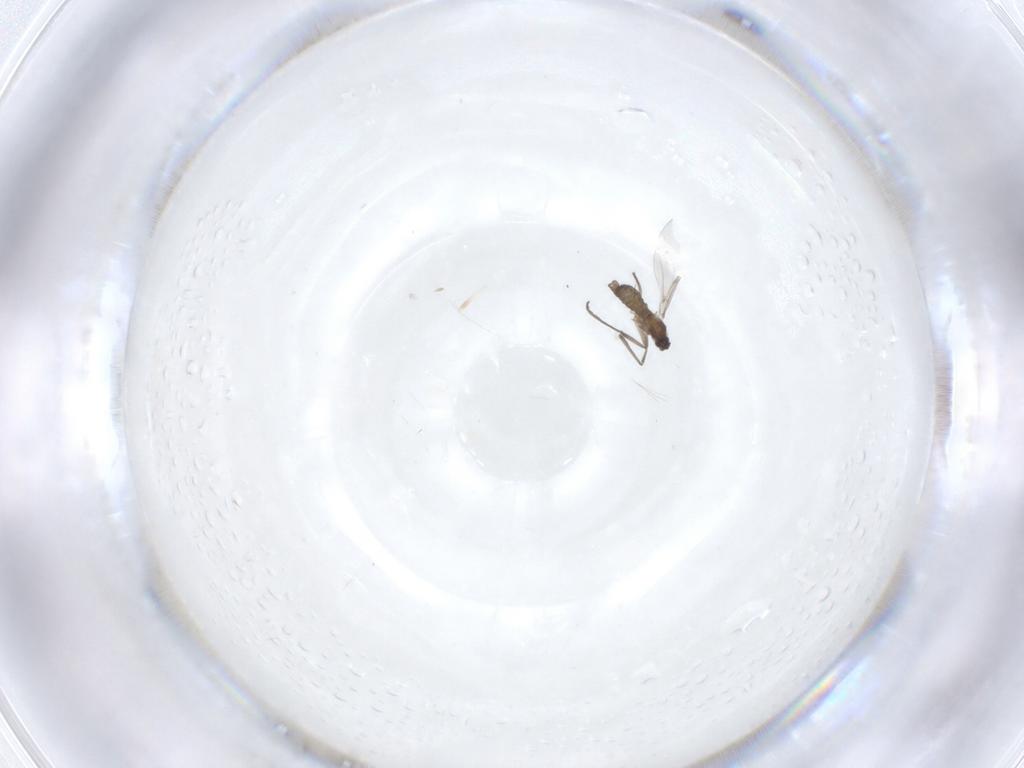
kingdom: Animalia
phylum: Arthropoda
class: Insecta
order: Diptera
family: Cecidomyiidae
